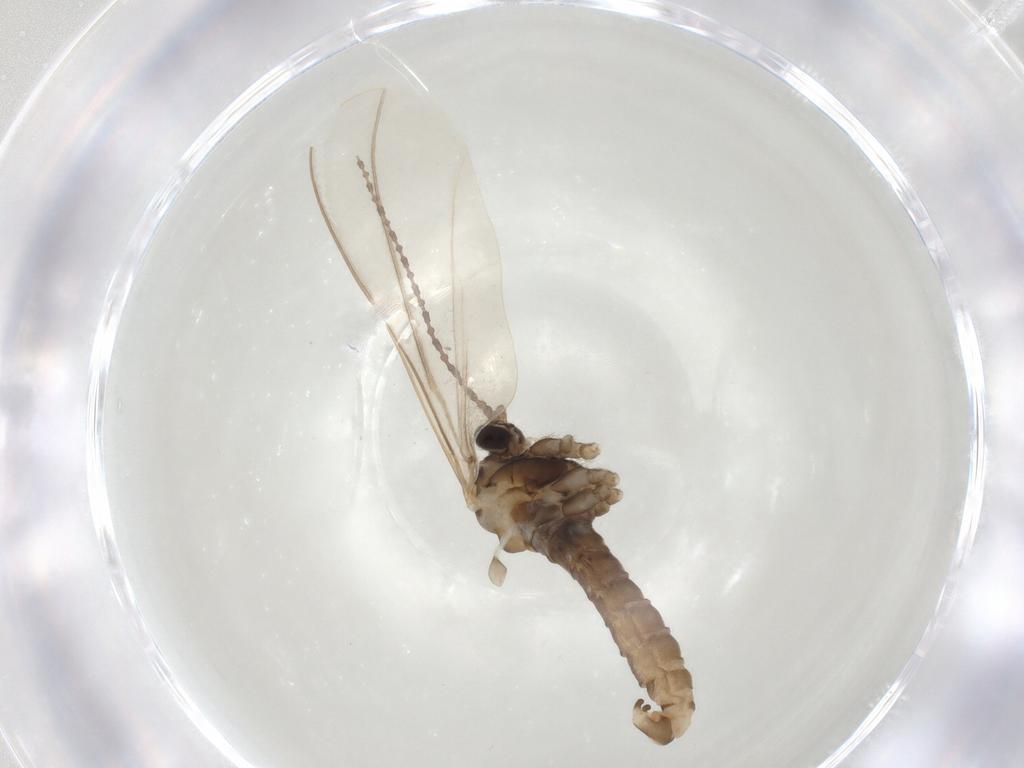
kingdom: Animalia
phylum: Arthropoda
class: Insecta
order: Diptera
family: Cecidomyiidae
